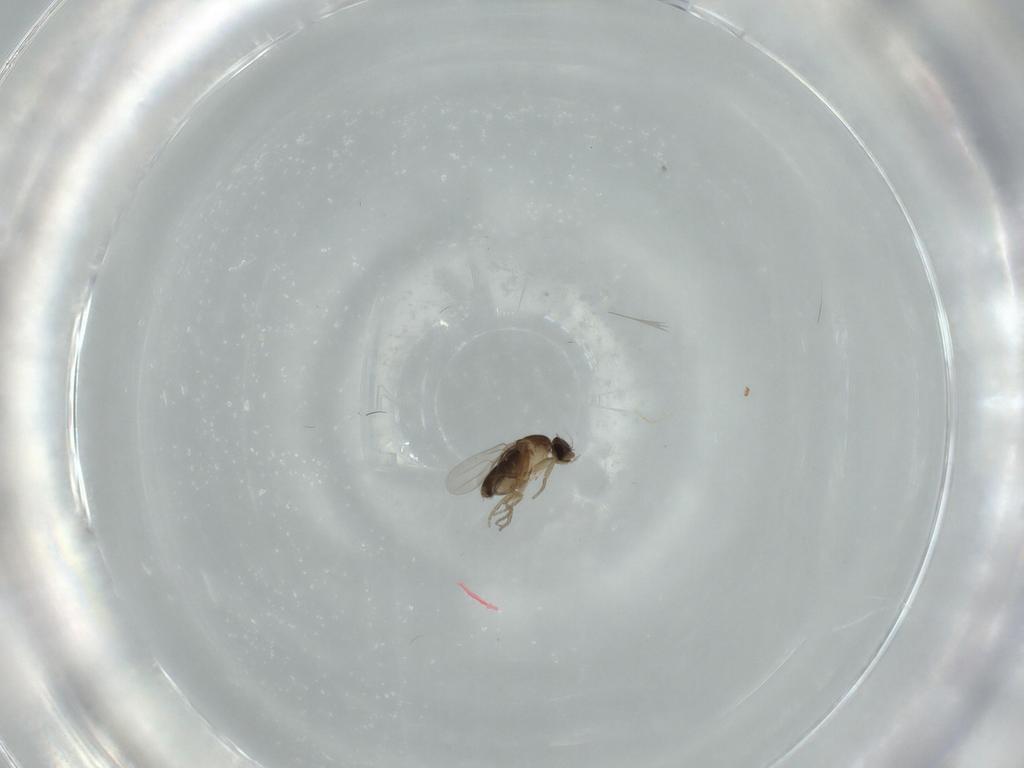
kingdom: Animalia
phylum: Arthropoda
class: Insecta
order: Diptera
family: Phoridae
